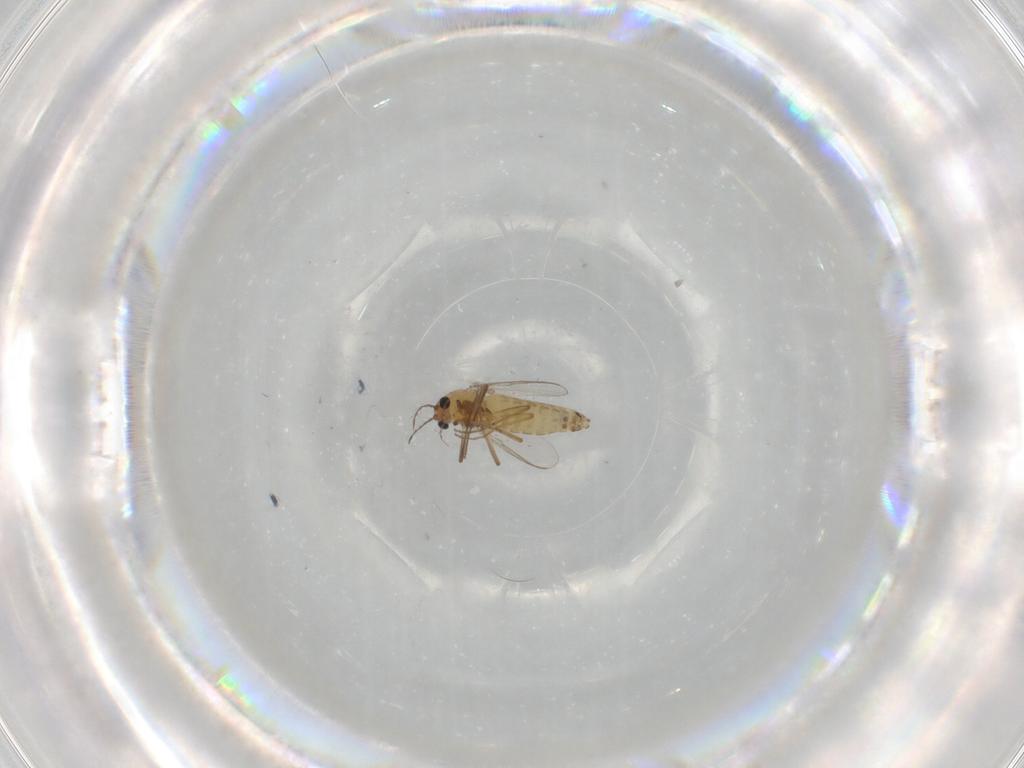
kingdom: Animalia
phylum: Arthropoda
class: Insecta
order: Diptera
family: Chironomidae
